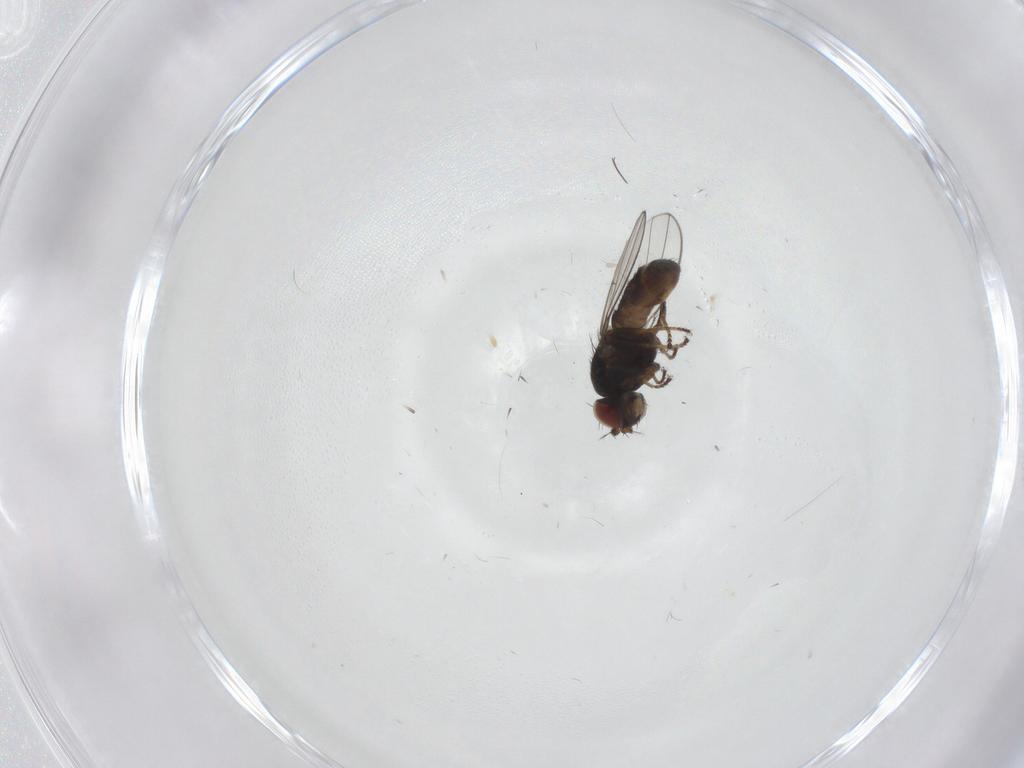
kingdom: Animalia
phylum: Arthropoda
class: Insecta
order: Diptera
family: Ephydridae
